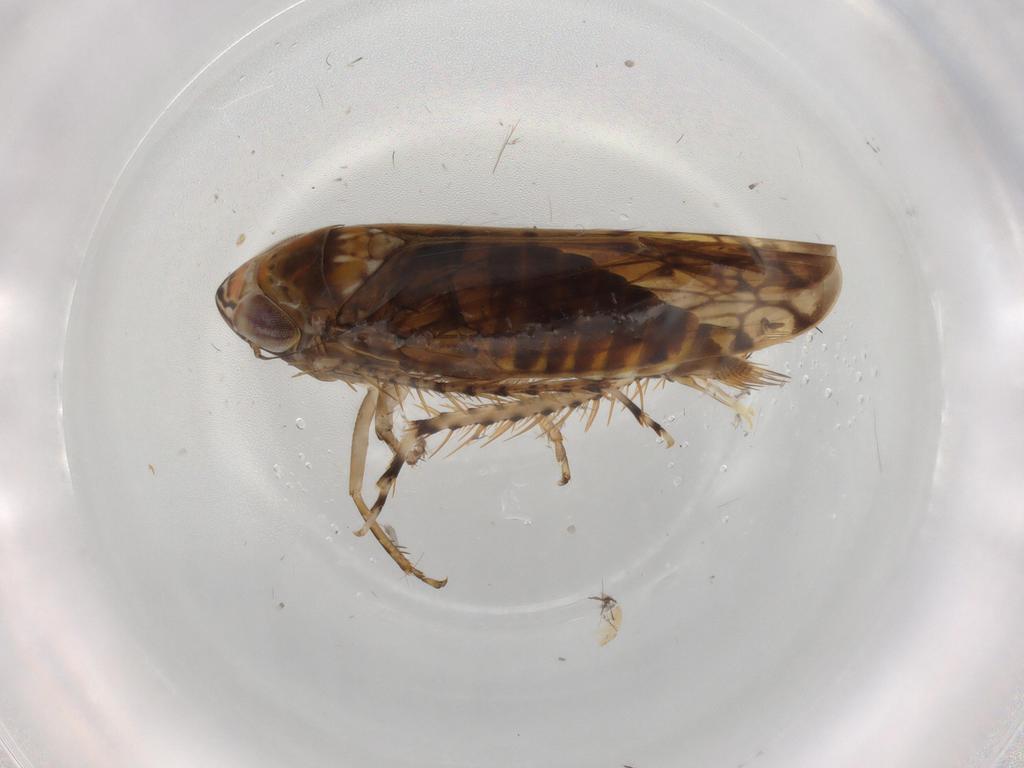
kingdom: Animalia
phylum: Arthropoda
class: Insecta
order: Hemiptera
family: Cicadellidae
